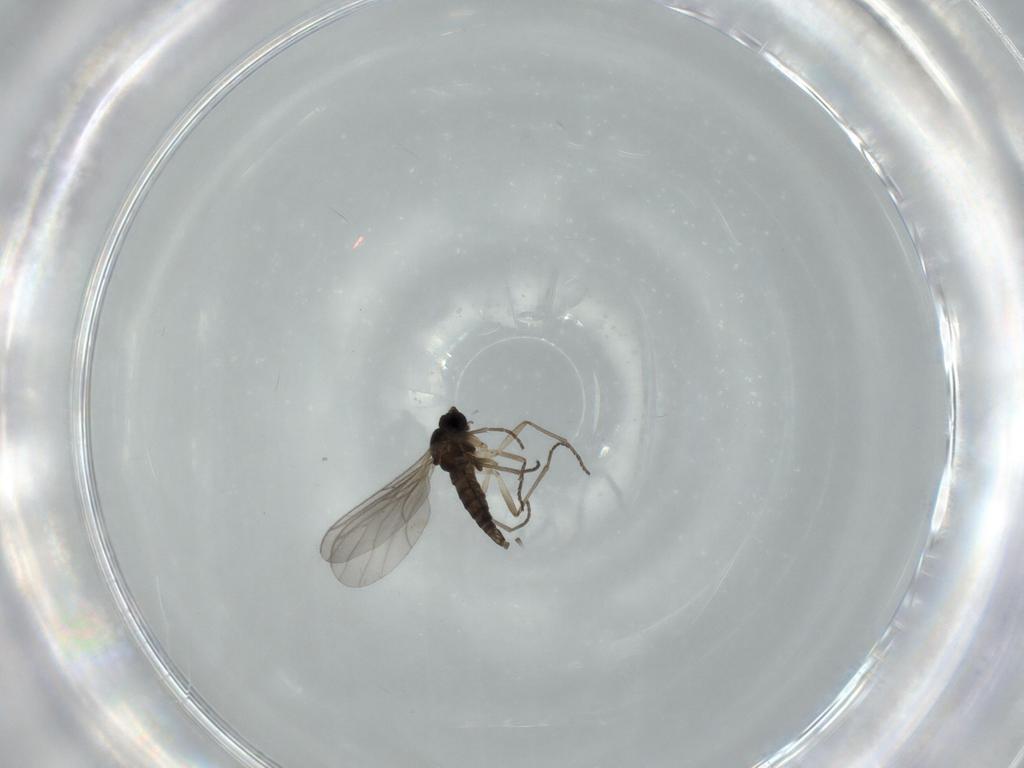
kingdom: Animalia
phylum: Arthropoda
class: Insecta
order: Diptera
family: Sciaridae
